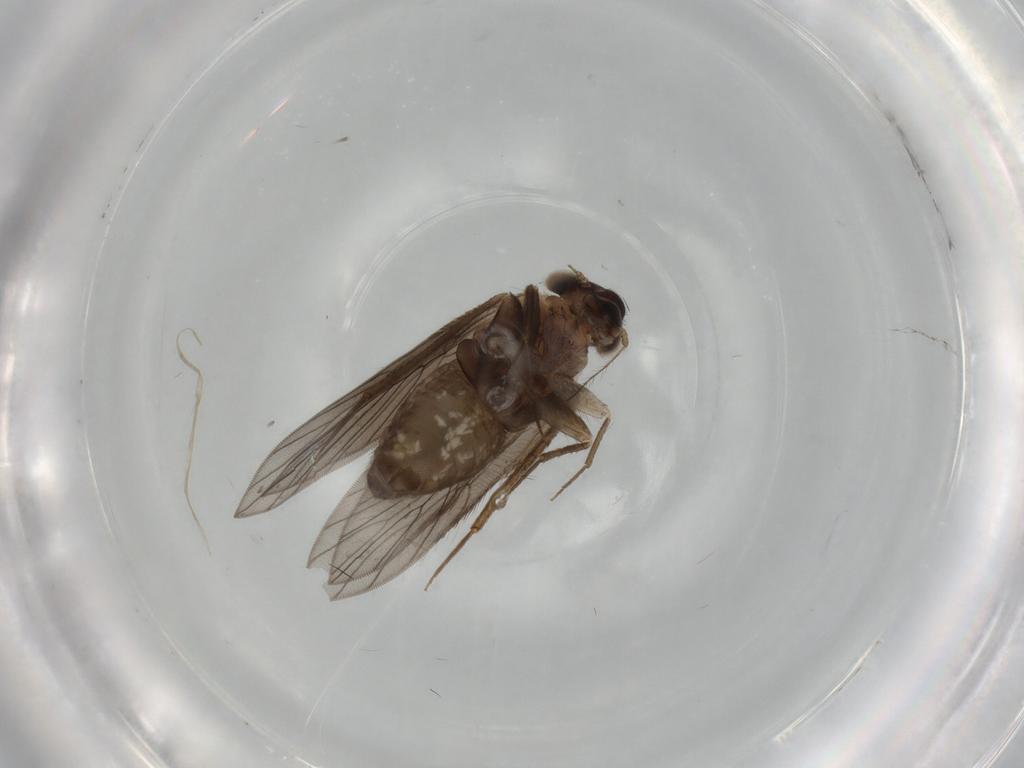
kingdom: Animalia
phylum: Arthropoda
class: Insecta
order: Psocodea
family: Lepidopsocidae
